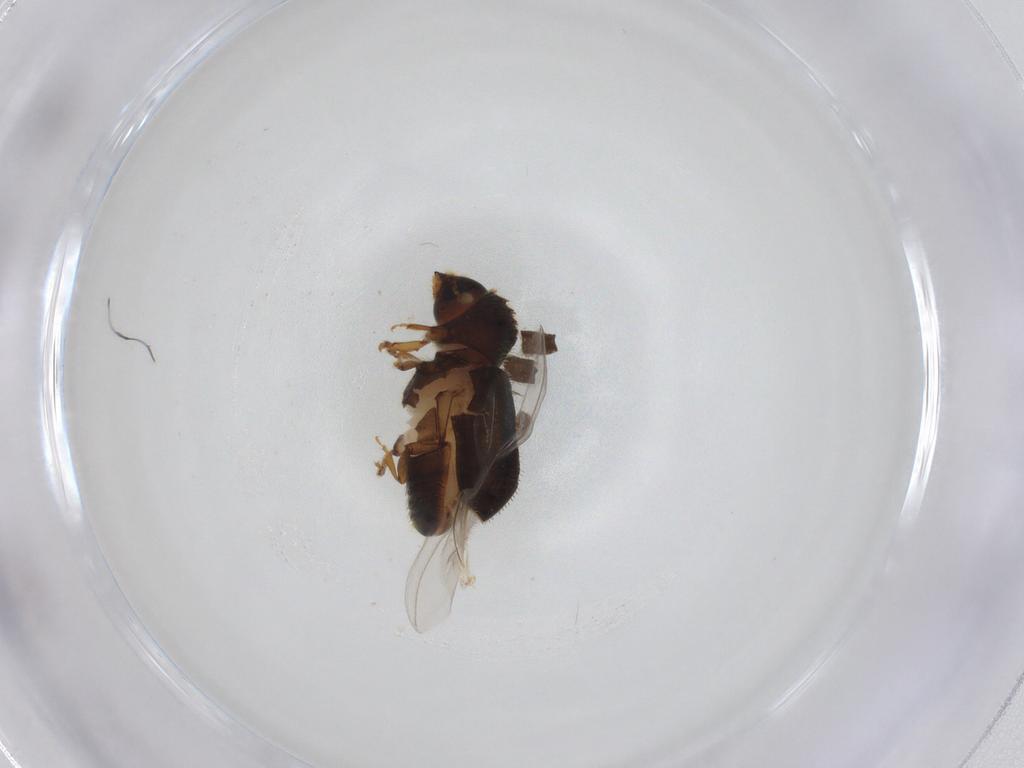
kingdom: Animalia
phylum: Arthropoda
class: Insecta
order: Coleoptera
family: Curculionidae
